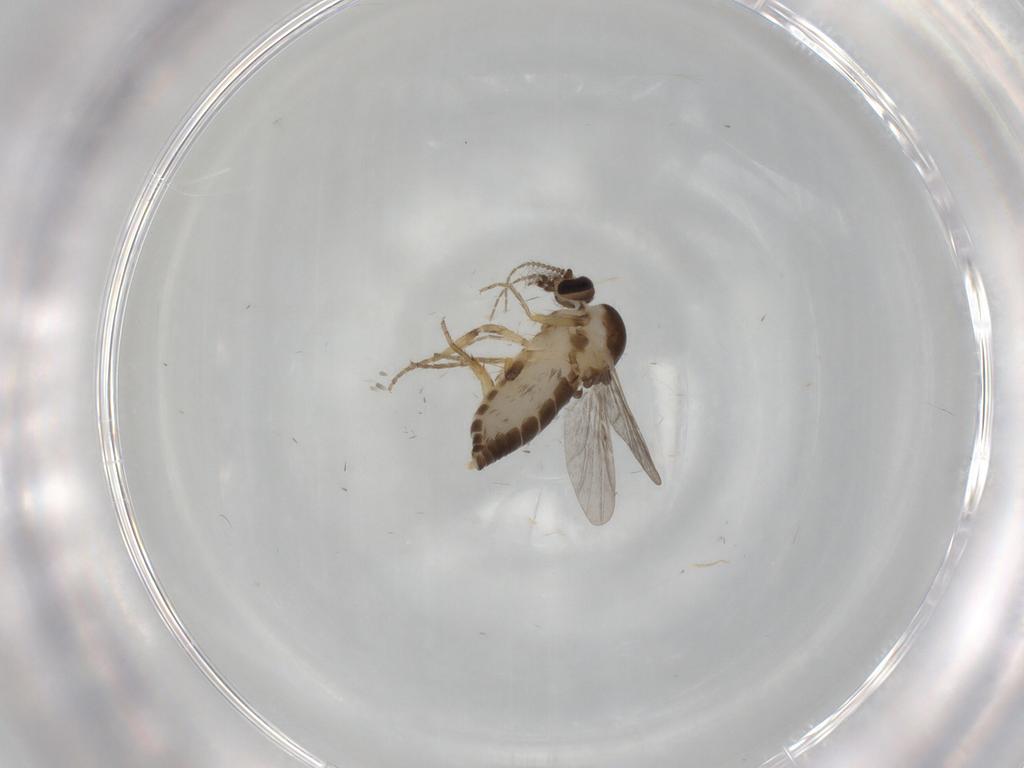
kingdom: Animalia
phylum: Arthropoda
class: Insecta
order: Diptera
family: Ceratopogonidae
